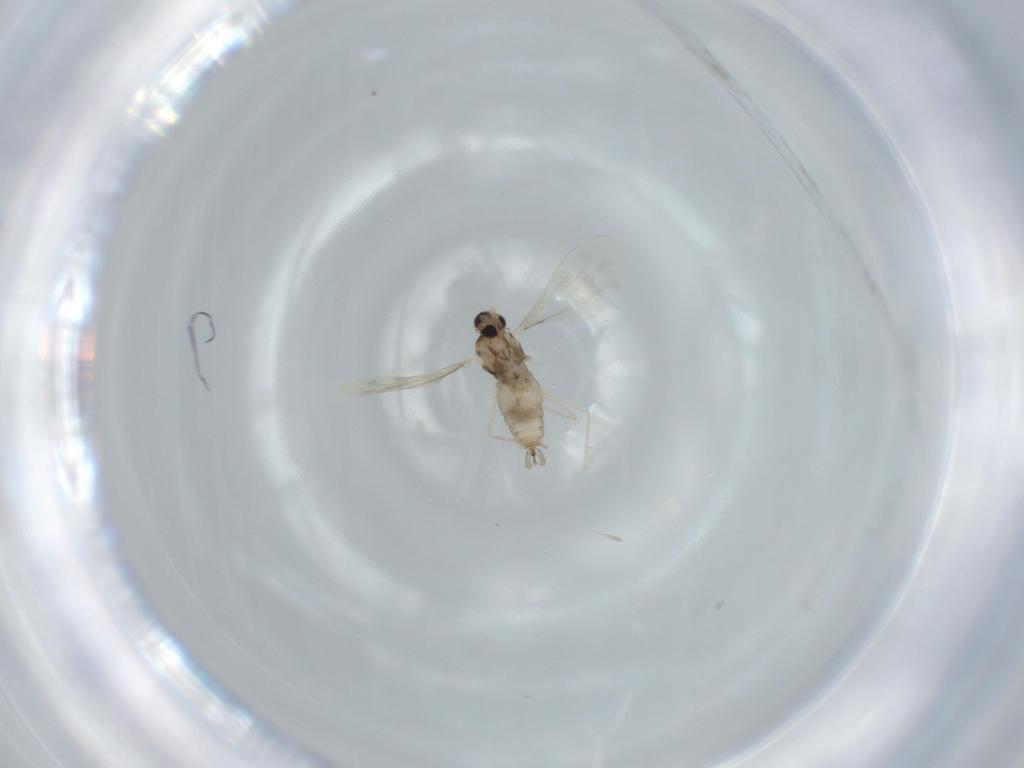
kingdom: Animalia
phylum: Arthropoda
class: Insecta
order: Diptera
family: Cecidomyiidae
